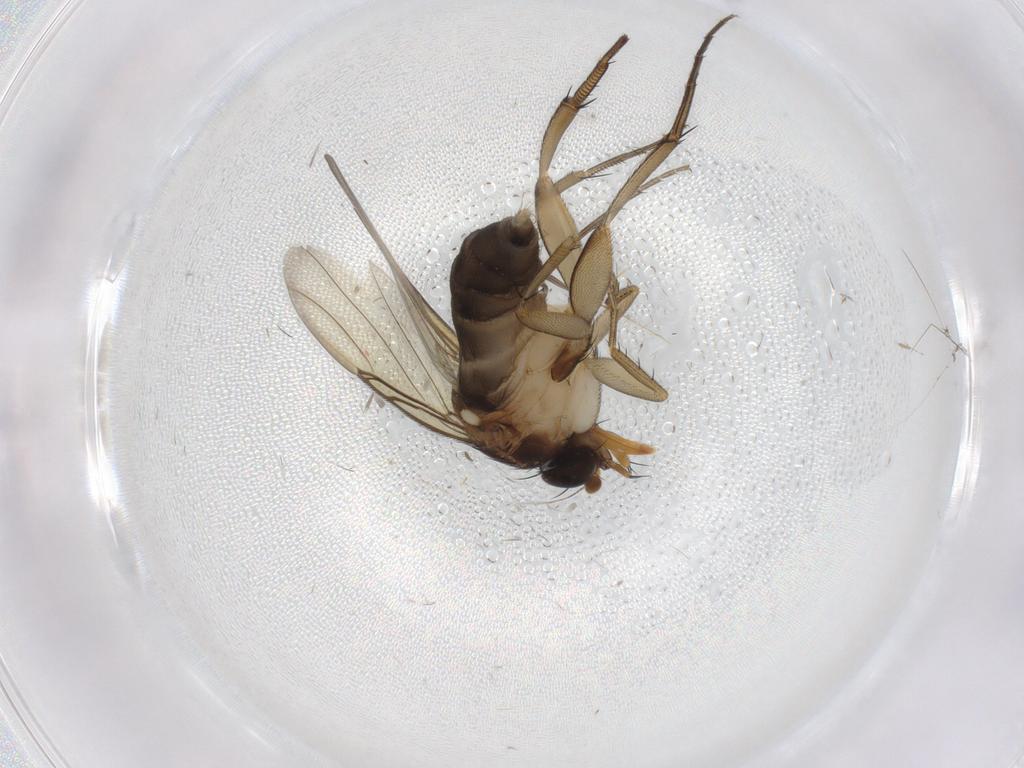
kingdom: Animalia
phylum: Arthropoda
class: Insecta
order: Diptera
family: Phoridae
